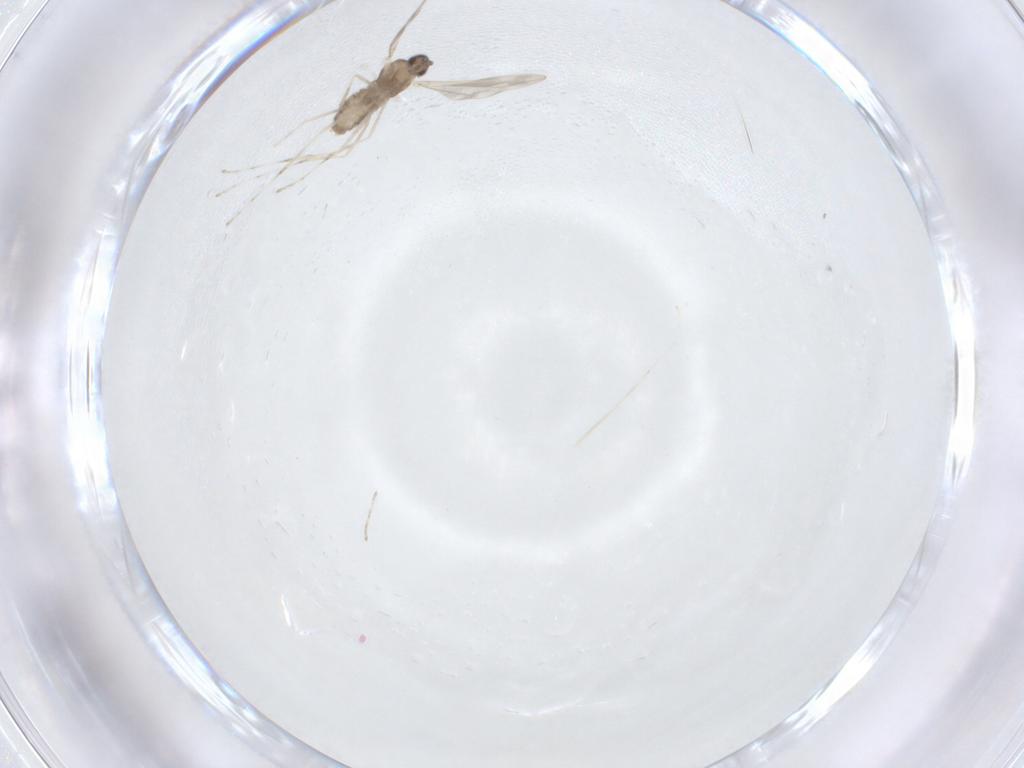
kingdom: Animalia
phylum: Arthropoda
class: Insecta
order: Diptera
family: Cecidomyiidae
